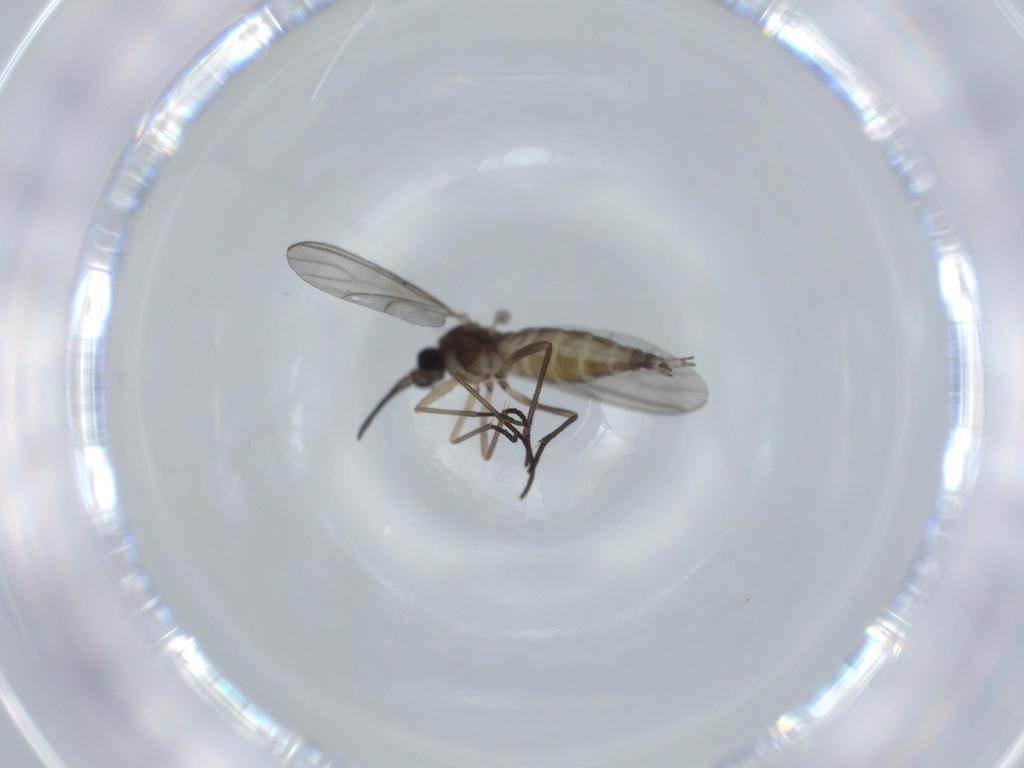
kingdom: Animalia
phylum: Arthropoda
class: Insecta
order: Diptera
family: Sciaridae
